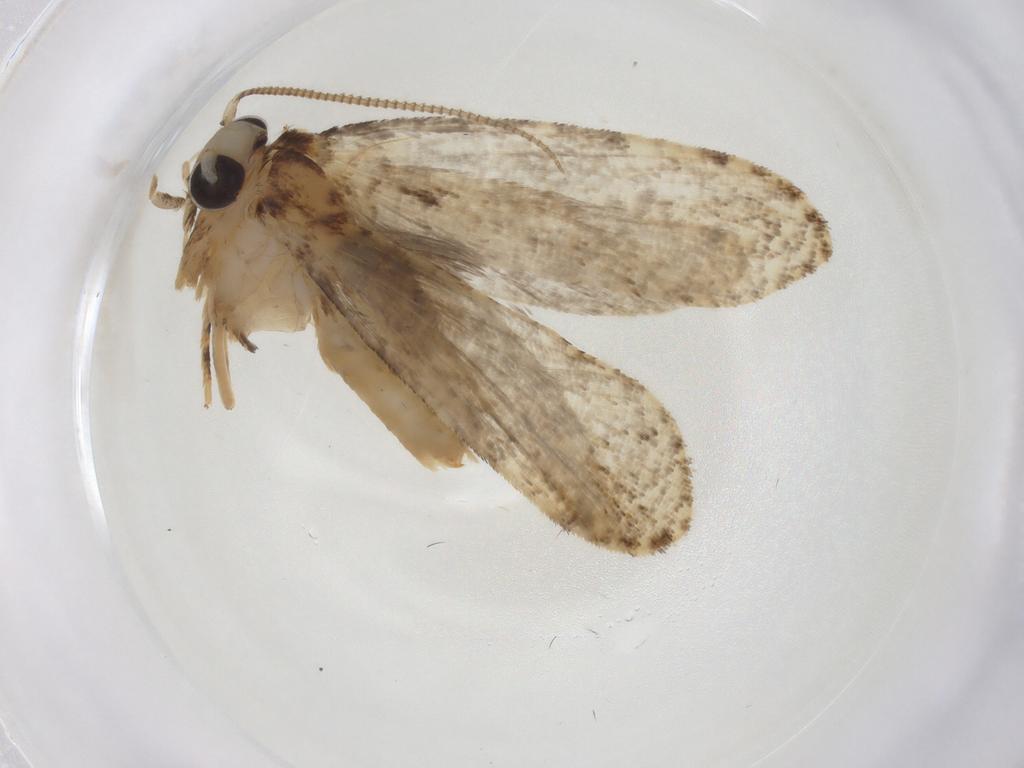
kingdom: Animalia
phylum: Arthropoda
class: Insecta
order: Lepidoptera
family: Tineidae
